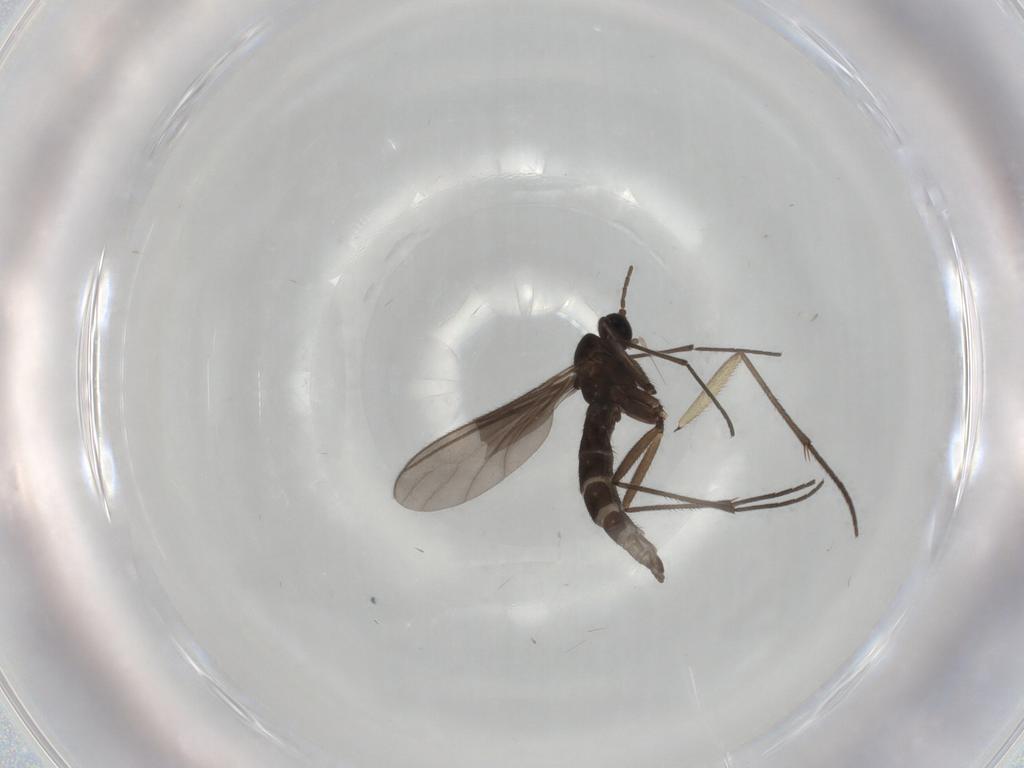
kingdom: Animalia
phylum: Arthropoda
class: Insecta
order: Diptera
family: Sciaridae
